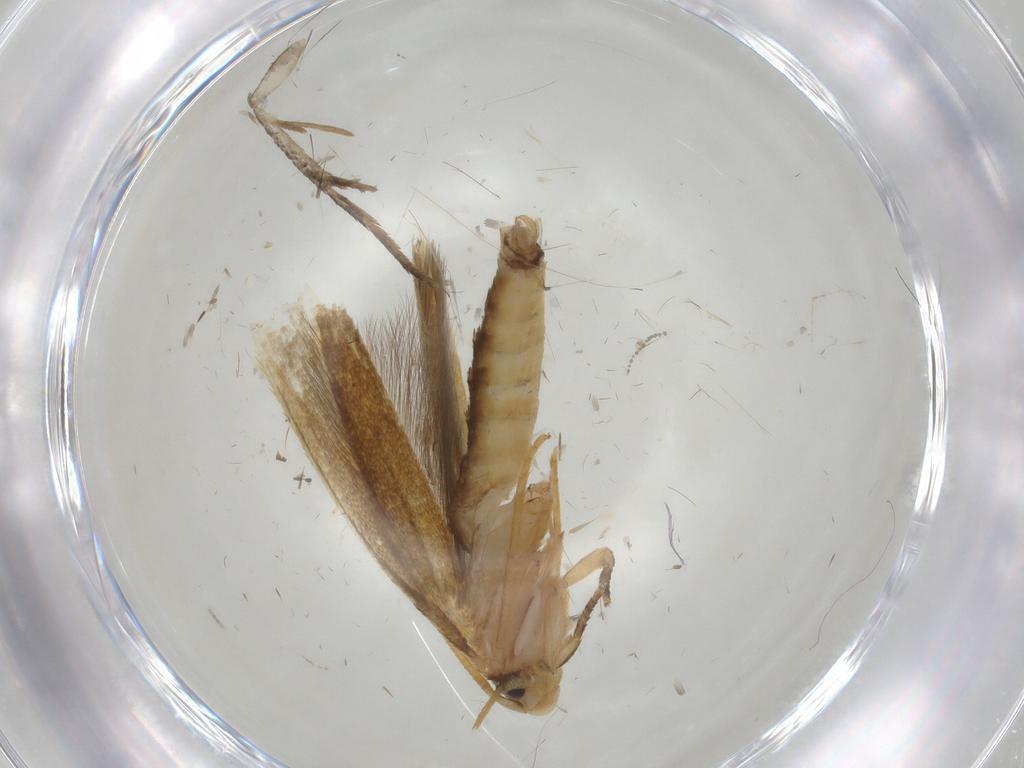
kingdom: Animalia
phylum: Arthropoda
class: Insecta
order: Lepidoptera
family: Tineidae
